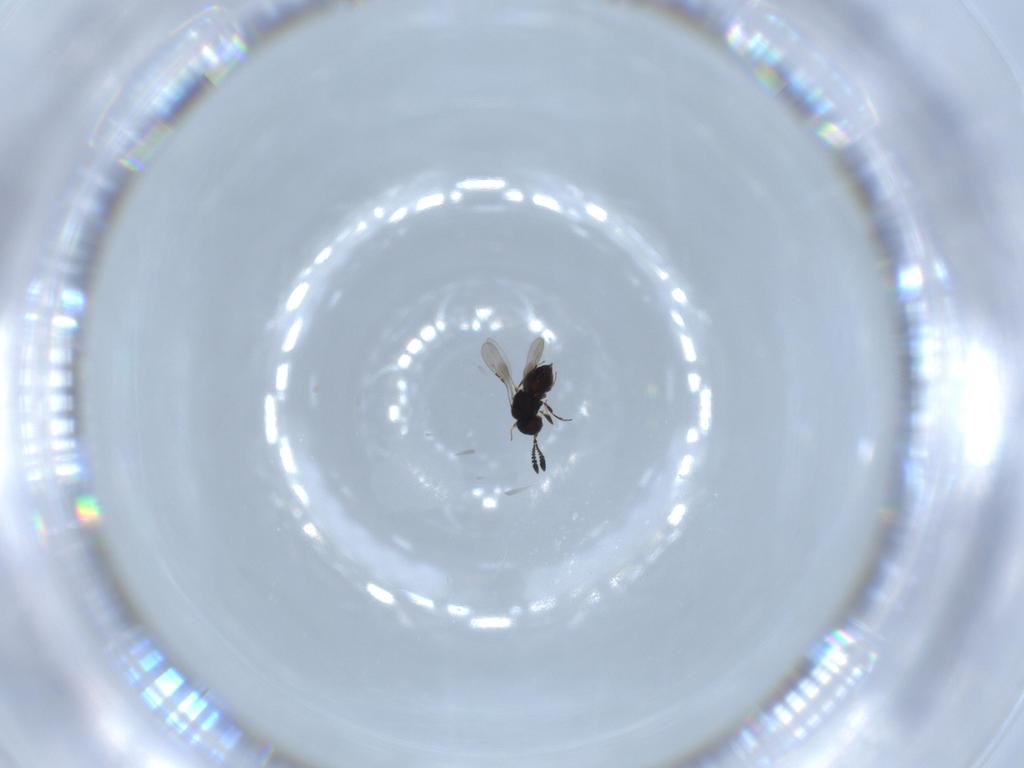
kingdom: Animalia
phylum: Arthropoda
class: Insecta
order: Hymenoptera
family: Ceraphronidae
